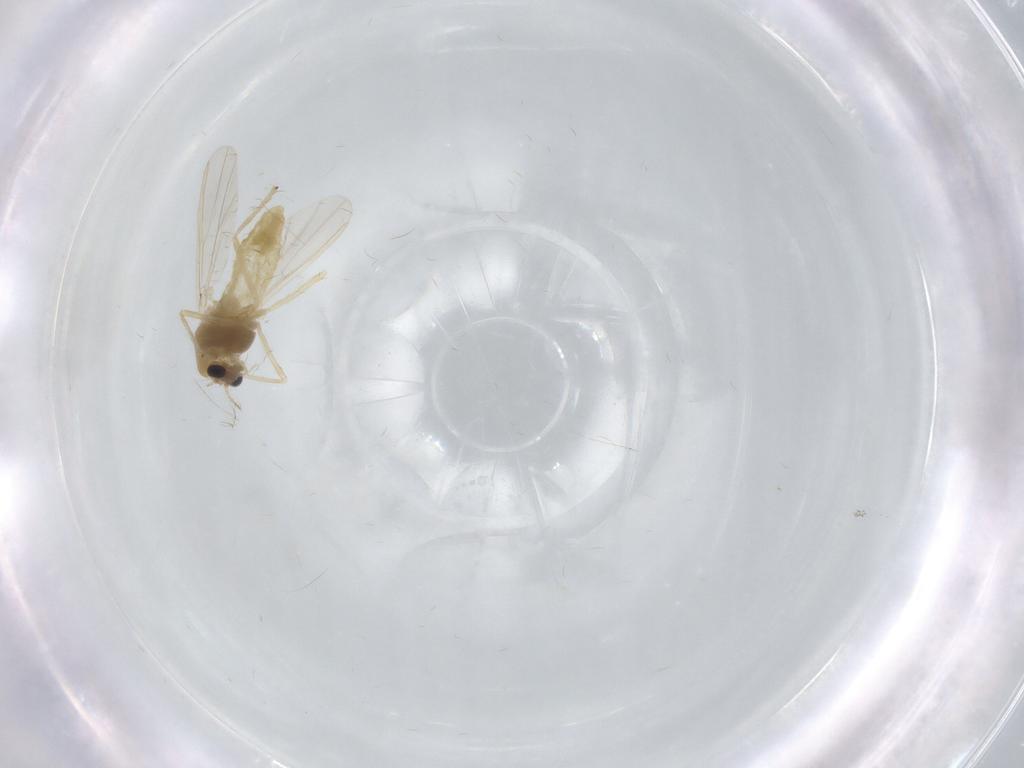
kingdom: Animalia
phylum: Arthropoda
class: Insecta
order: Diptera
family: Chironomidae
